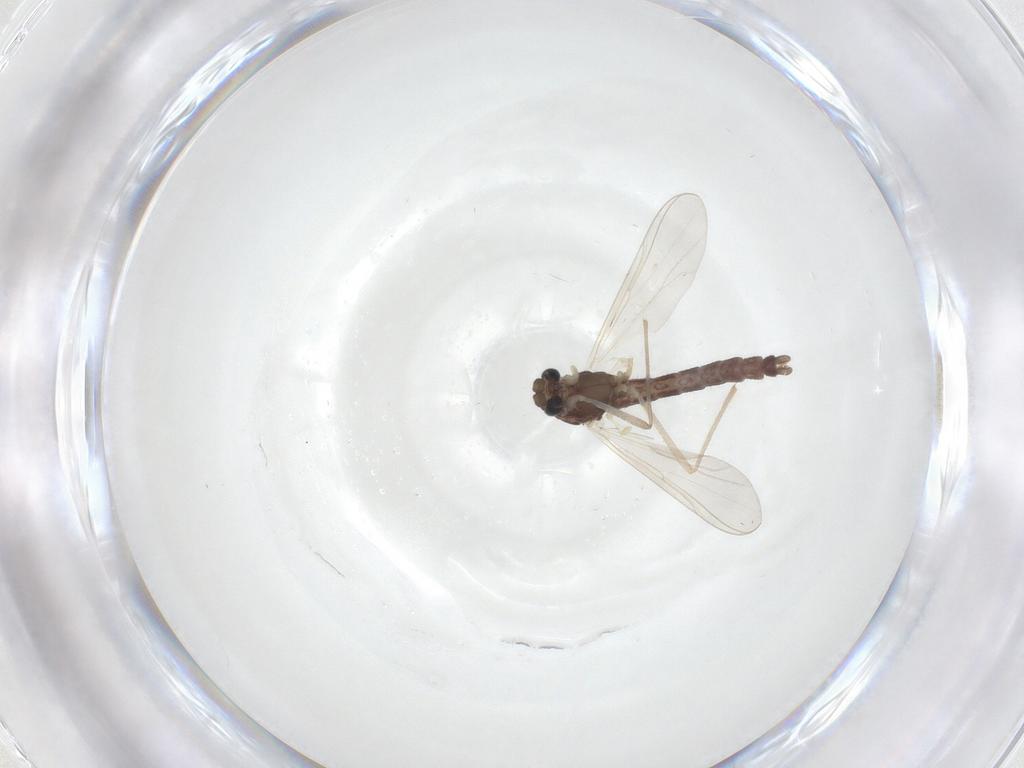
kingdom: Animalia
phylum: Arthropoda
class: Insecta
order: Diptera
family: Chironomidae
